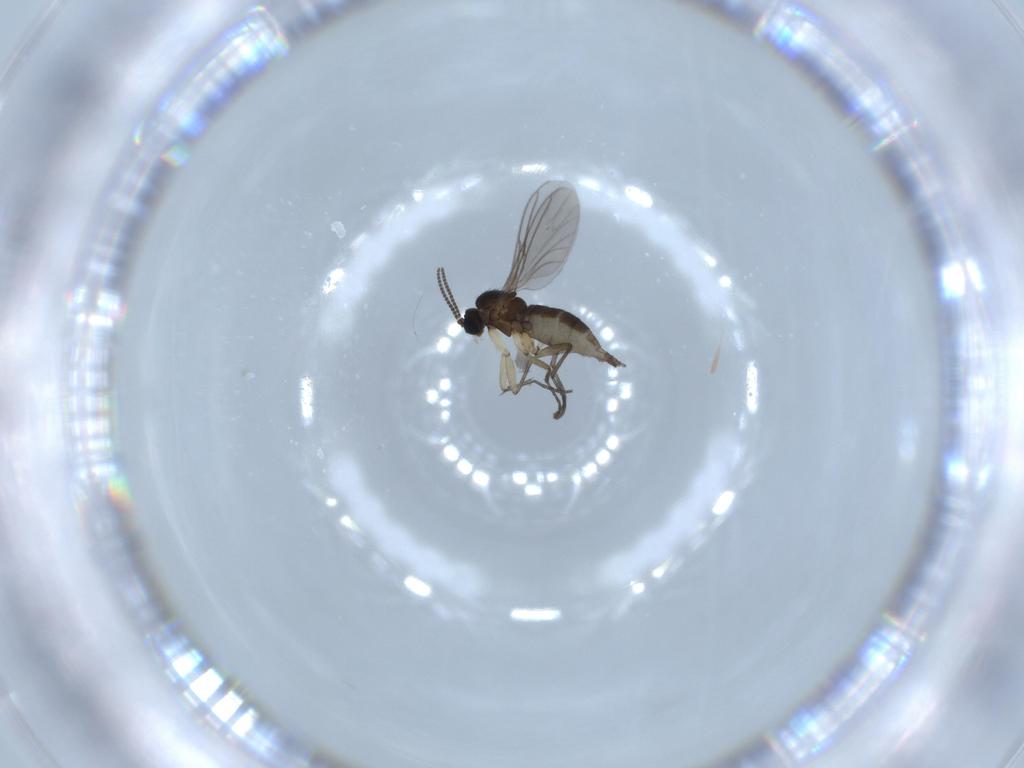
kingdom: Animalia
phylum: Arthropoda
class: Insecta
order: Diptera
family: Sciaridae
